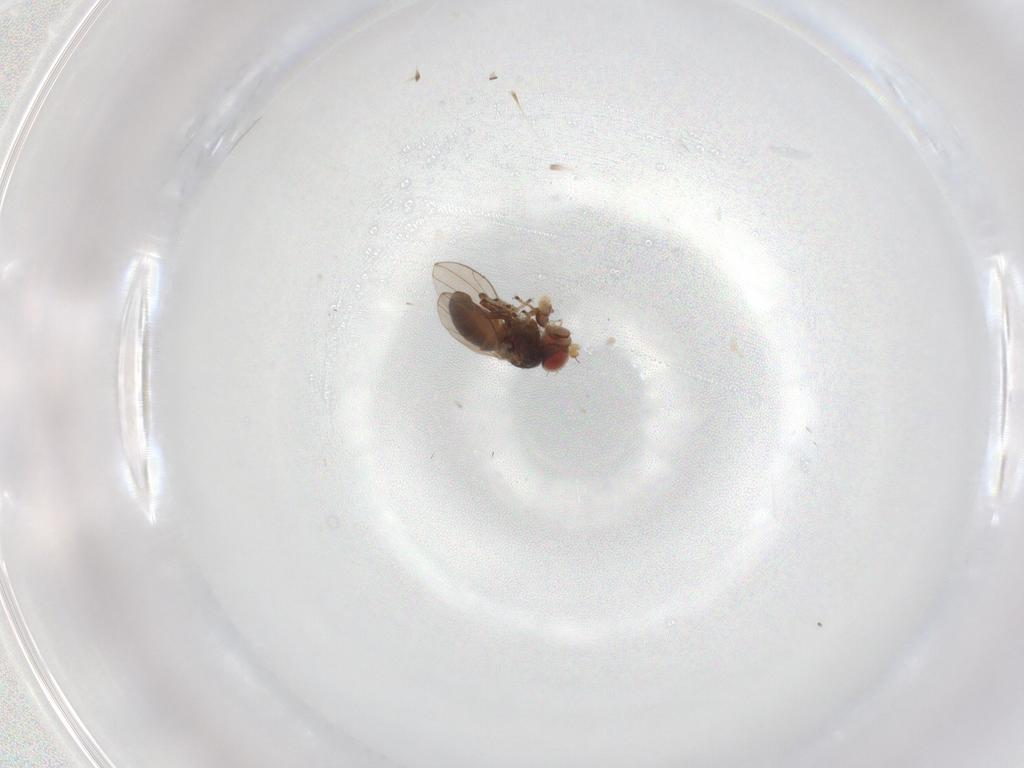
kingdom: Animalia
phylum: Arthropoda
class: Insecta
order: Diptera
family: Ephydridae
